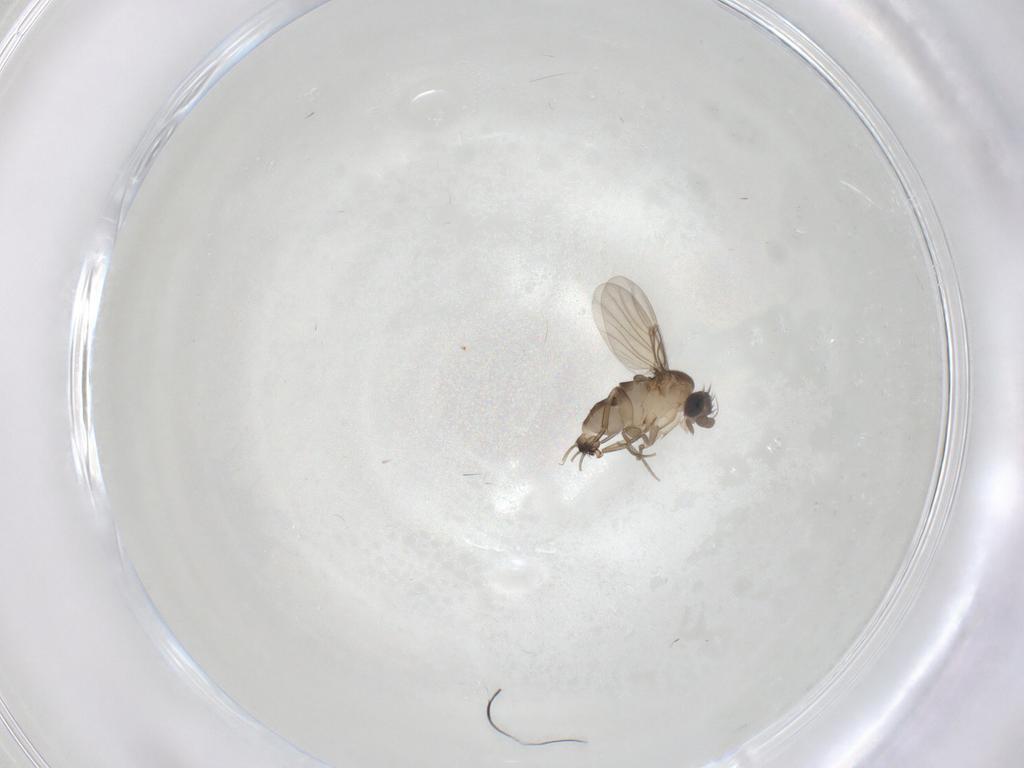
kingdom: Animalia
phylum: Arthropoda
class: Insecta
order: Diptera
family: Phoridae
